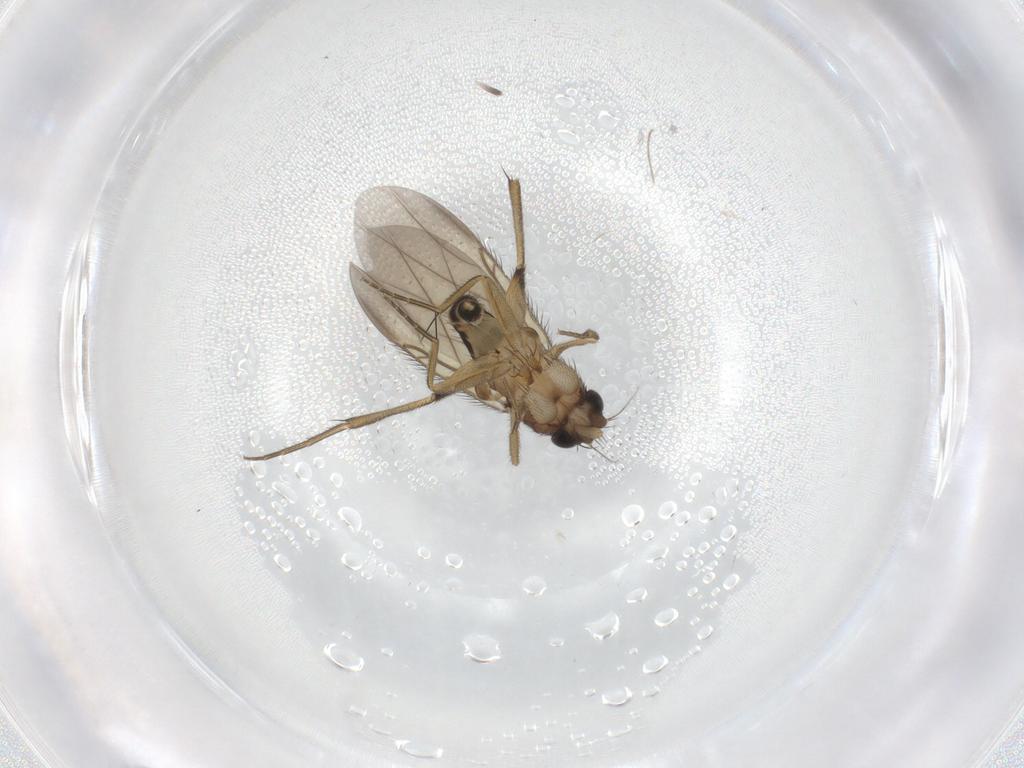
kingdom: Animalia
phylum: Arthropoda
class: Insecta
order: Diptera
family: Phoridae
